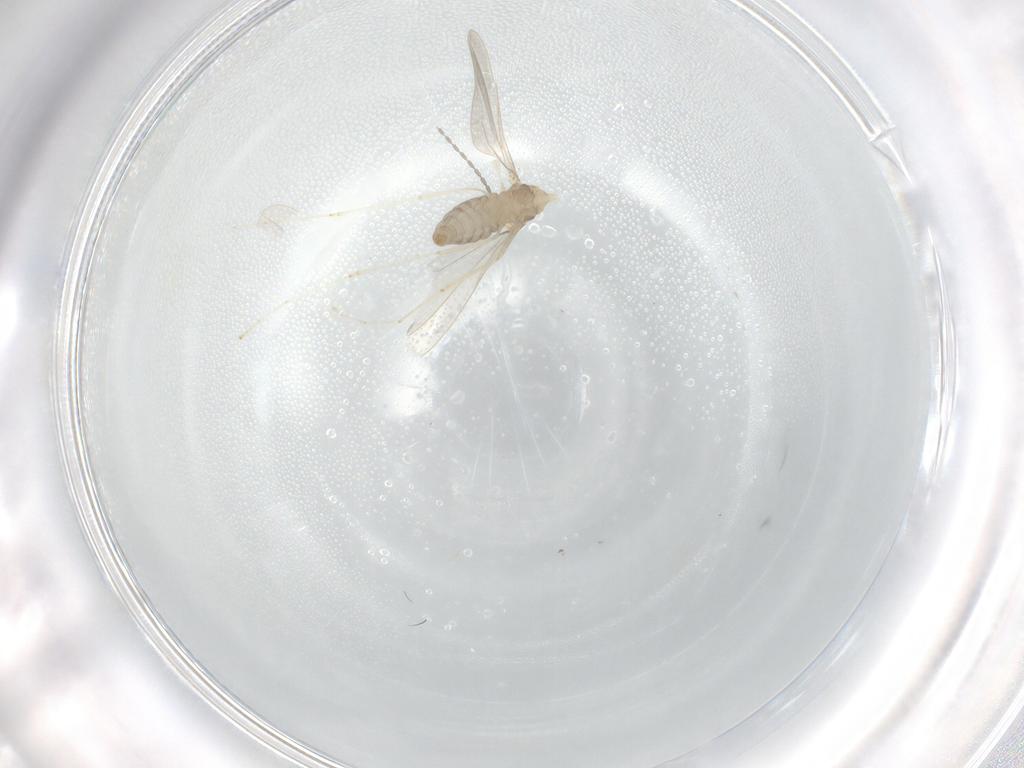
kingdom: Animalia
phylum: Arthropoda
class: Insecta
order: Diptera
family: Cecidomyiidae
